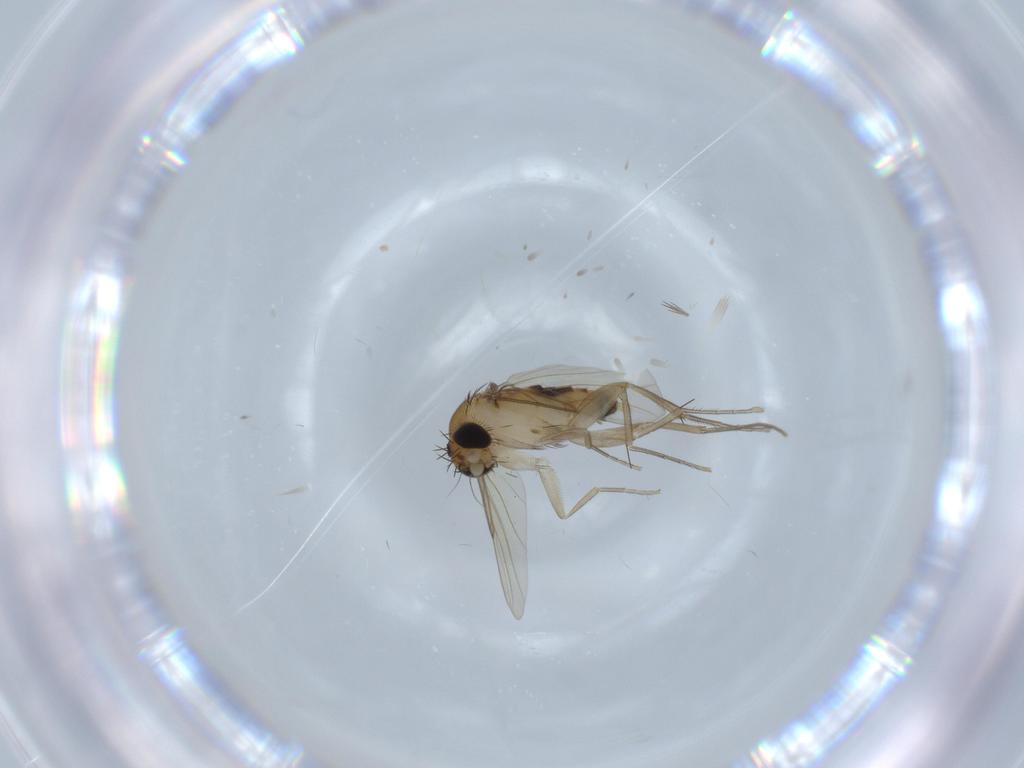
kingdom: Animalia
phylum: Arthropoda
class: Insecta
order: Diptera
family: Phoridae
